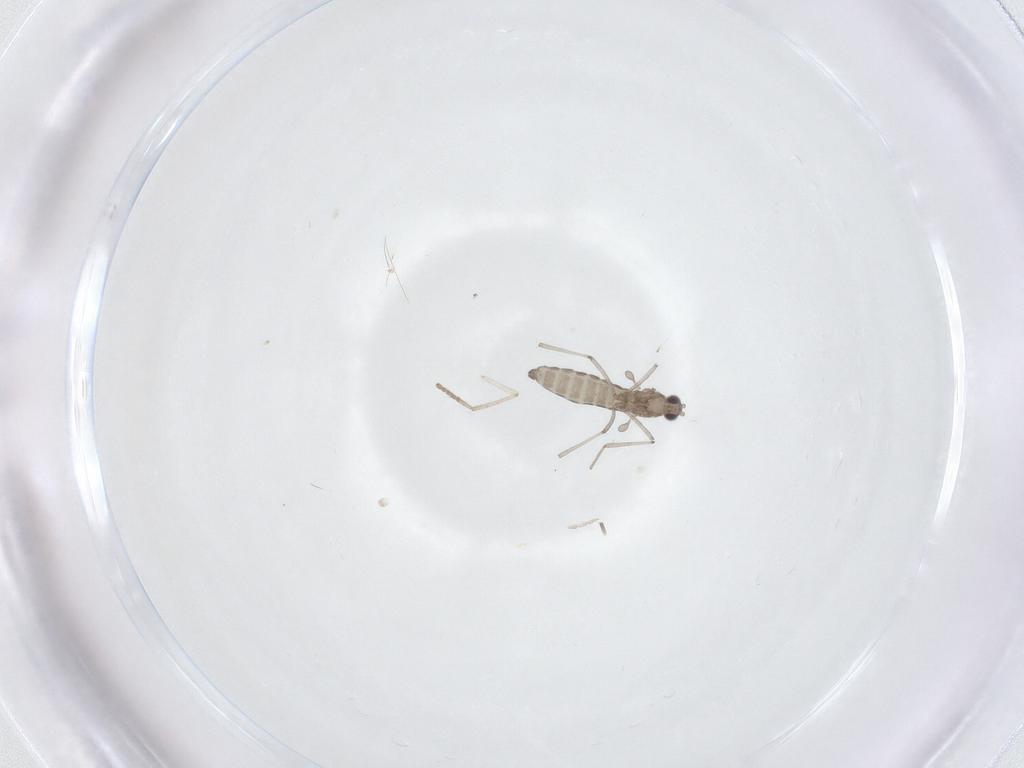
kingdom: Animalia
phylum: Arthropoda
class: Insecta
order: Diptera
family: Psychodidae
